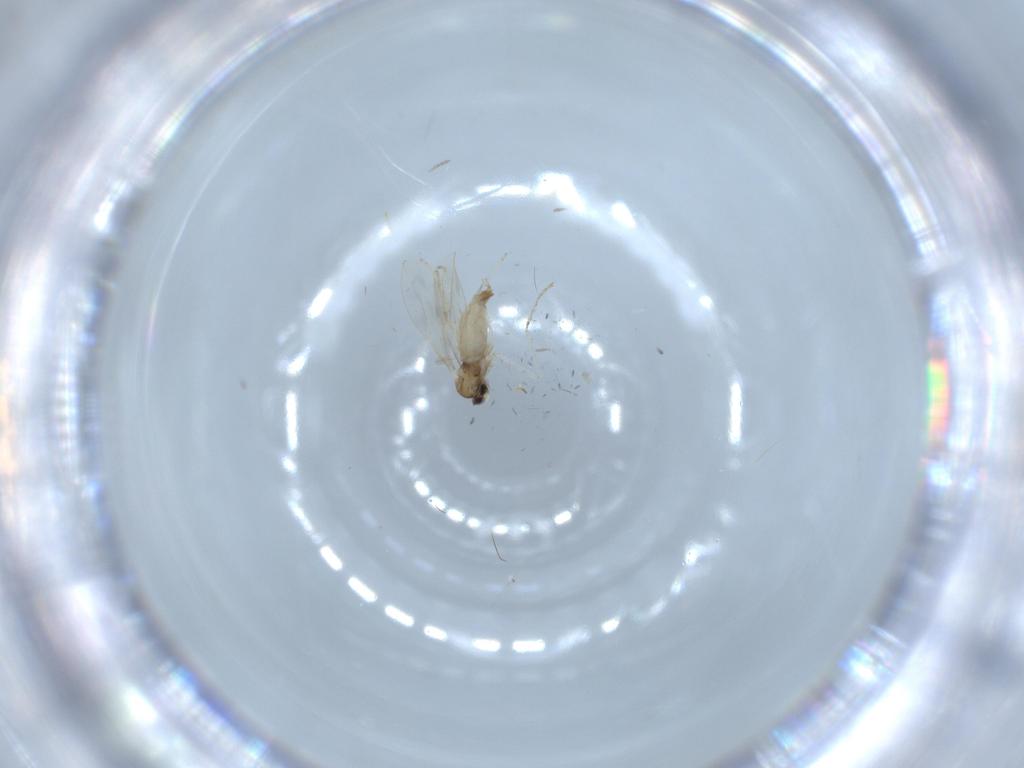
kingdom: Animalia
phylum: Arthropoda
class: Insecta
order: Diptera
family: Cecidomyiidae
